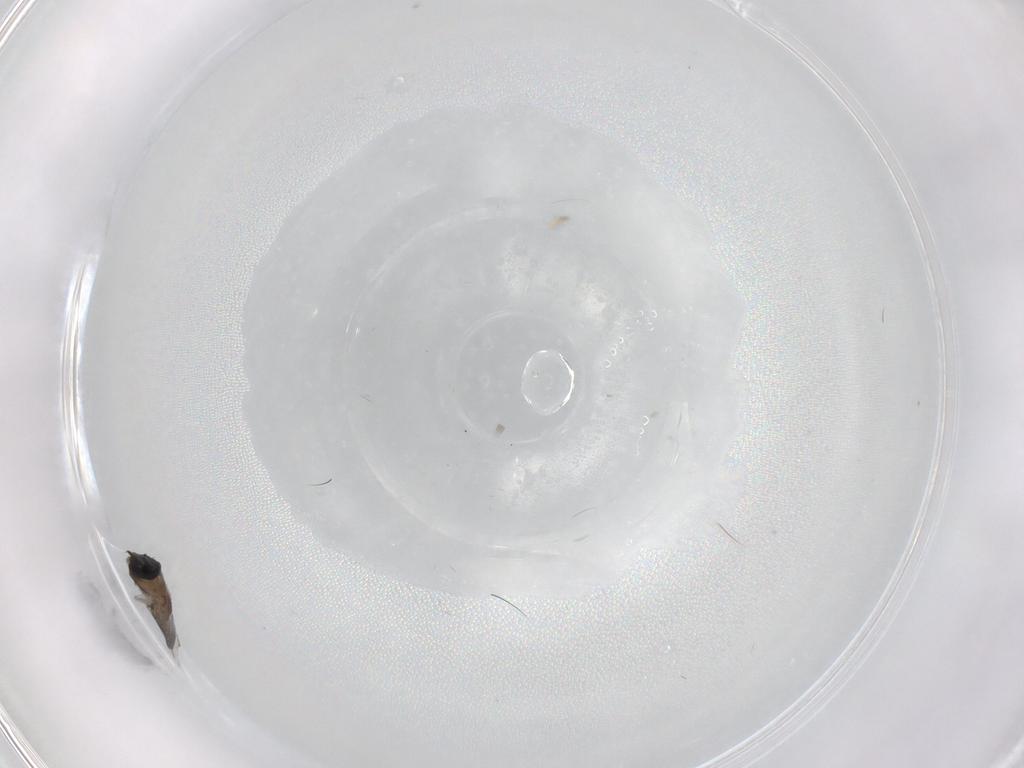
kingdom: Animalia
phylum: Arthropoda
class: Insecta
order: Diptera
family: Phoridae
